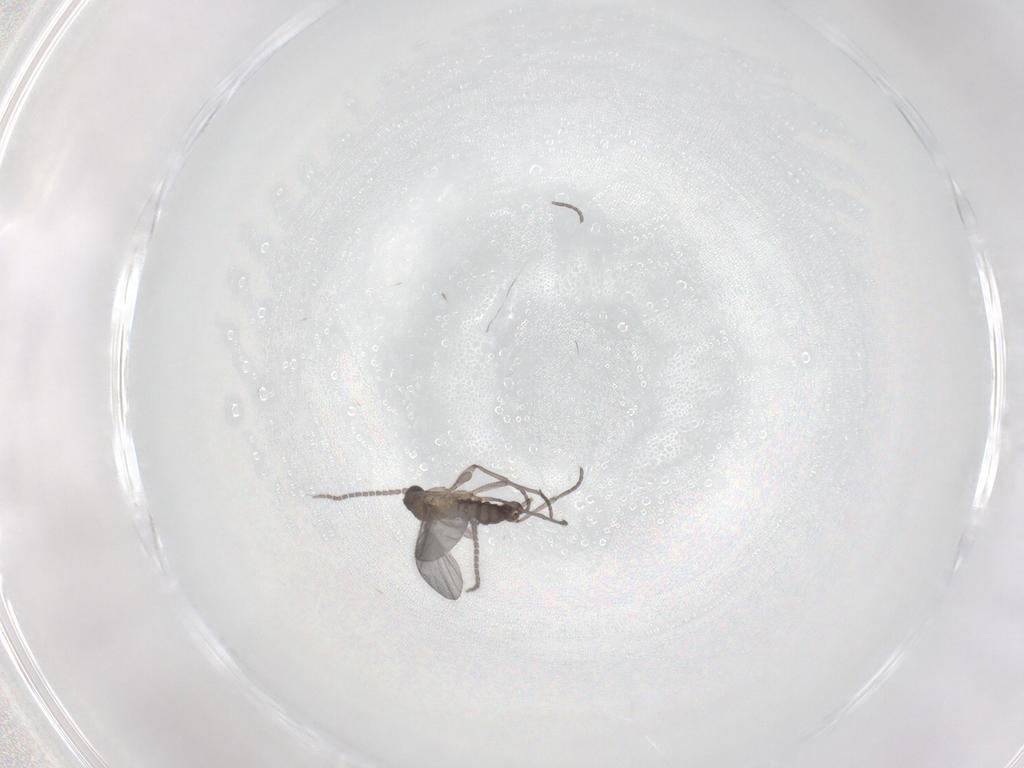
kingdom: Animalia
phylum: Arthropoda
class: Insecta
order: Diptera
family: Sciaridae
